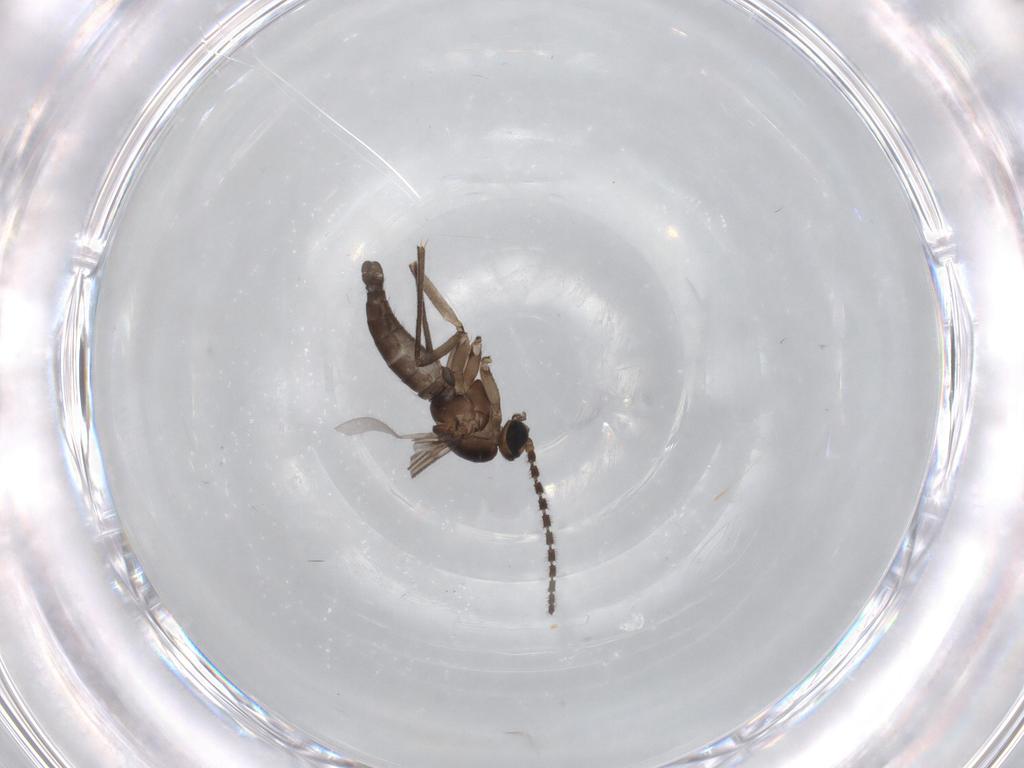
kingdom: Animalia
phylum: Arthropoda
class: Insecta
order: Diptera
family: Sciaridae
